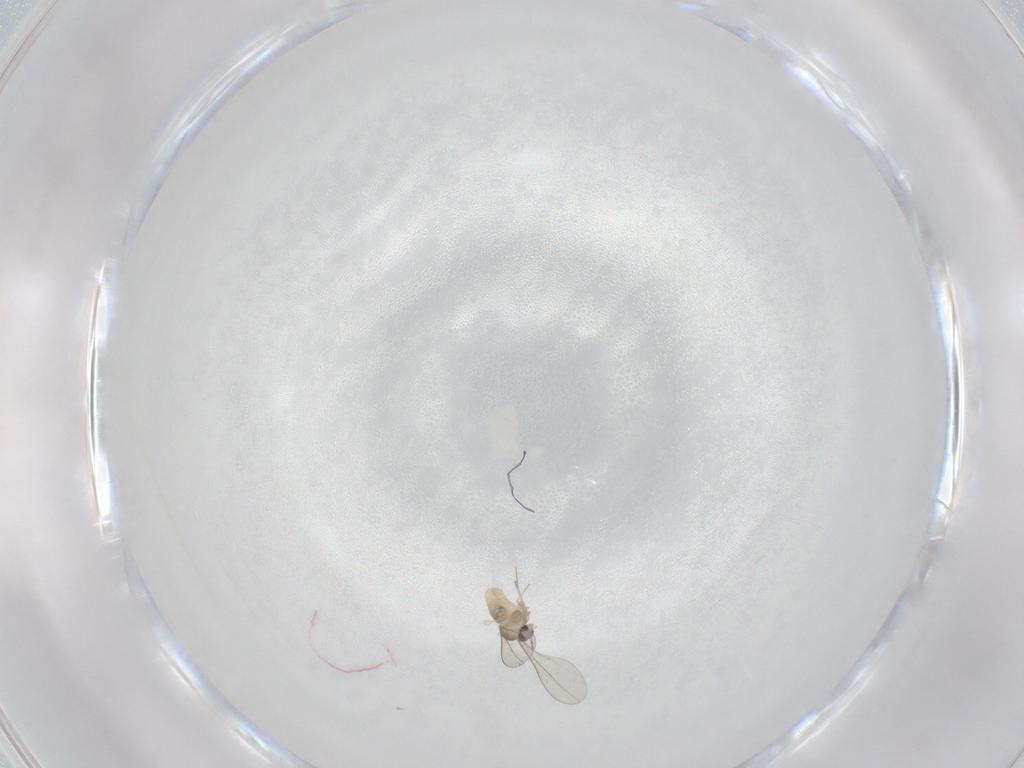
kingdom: Animalia
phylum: Arthropoda
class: Insecta
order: Diptera
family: Cecidomyiidae
